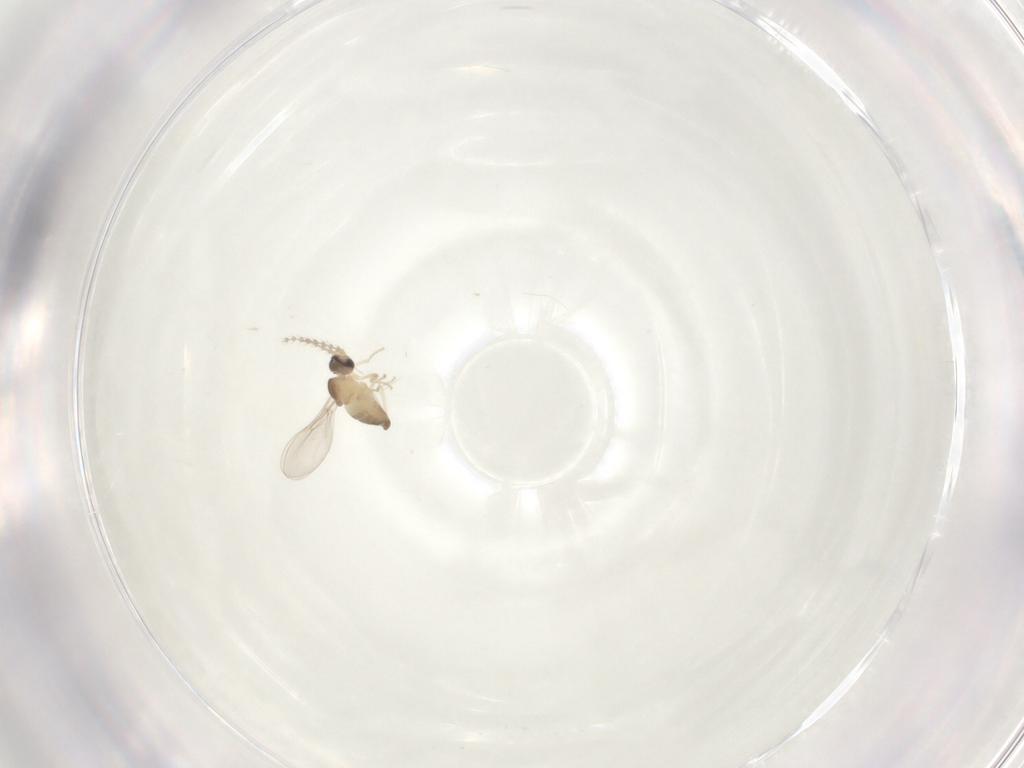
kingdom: Animalia
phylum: Arthropoda
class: Insecta
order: Diptera
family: Cecidomyiidae
